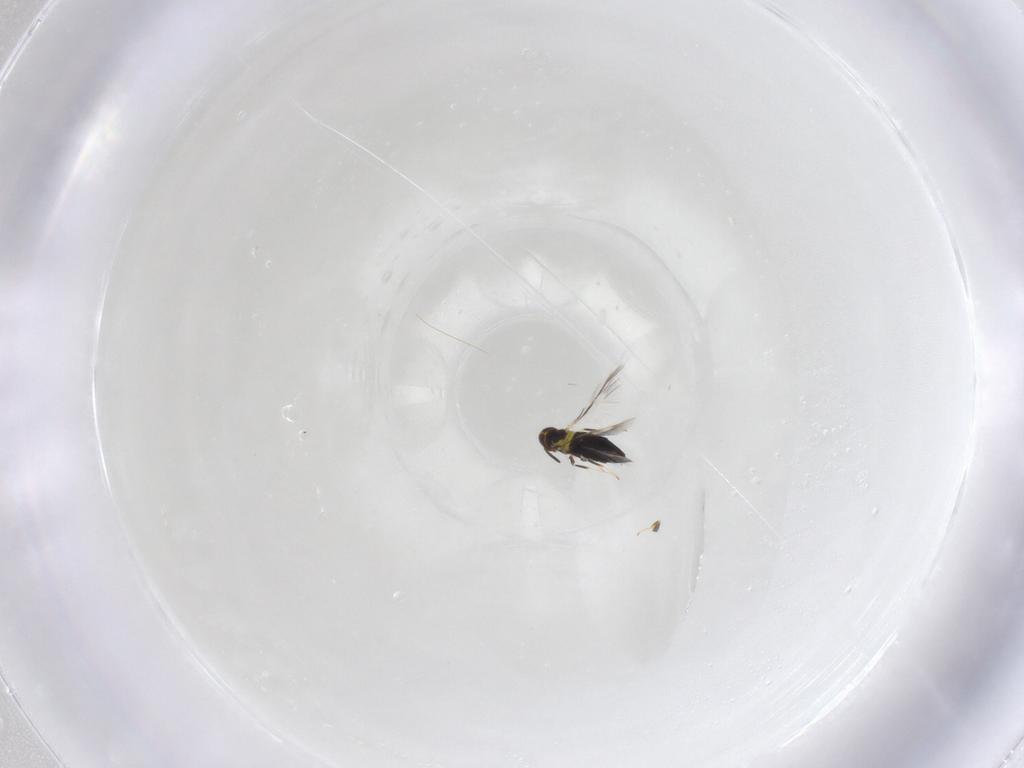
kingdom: Animalia
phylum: Arthropoda
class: Insecta
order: Hymenoptera
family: Signiphoridae
